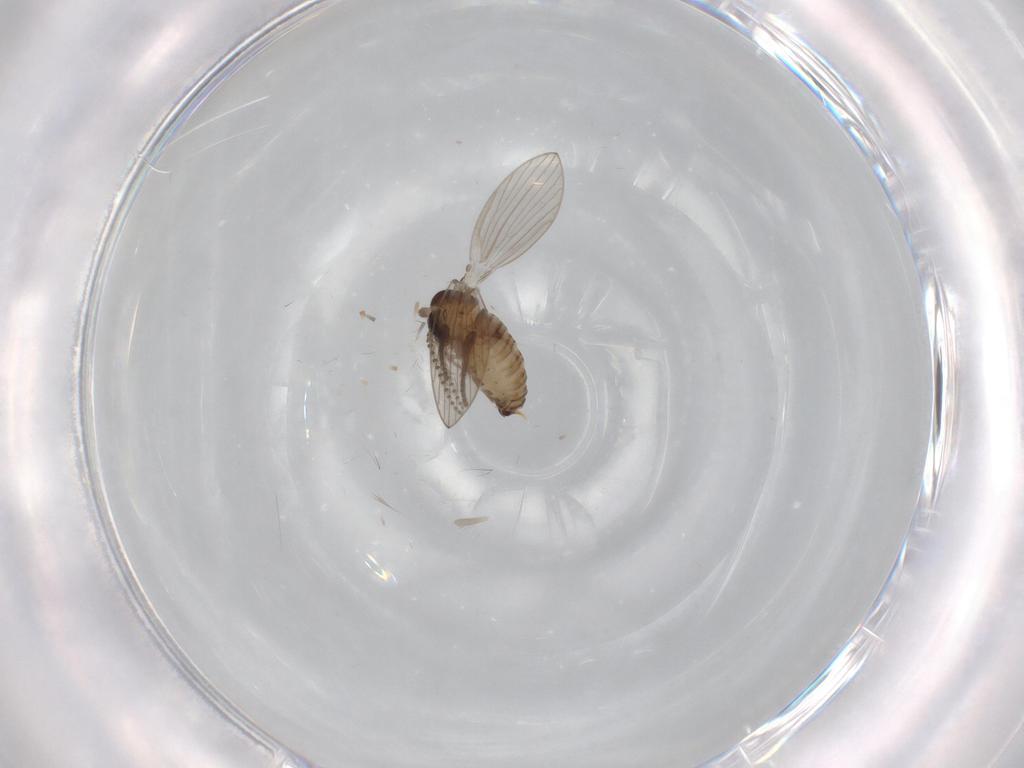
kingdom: Animalia
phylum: Arthropoda
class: Insecta
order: Diptera
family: Psychodidae
